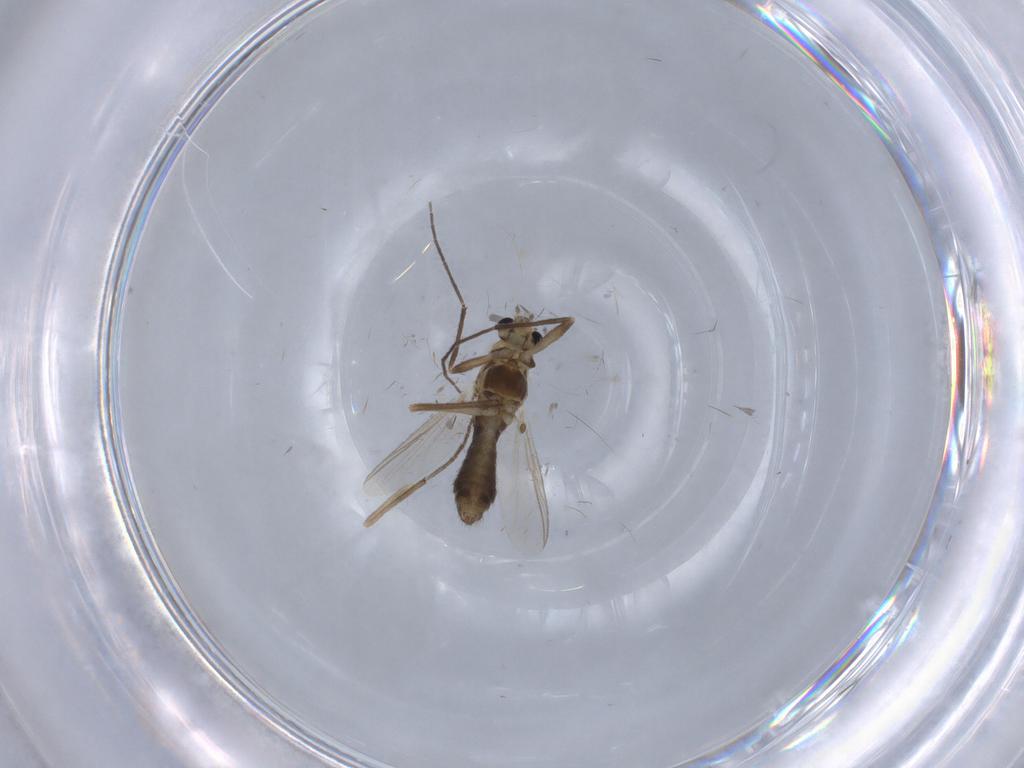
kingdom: Animalia
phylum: Arthropoda
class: Insecta
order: Diptera
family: Chironomidae
